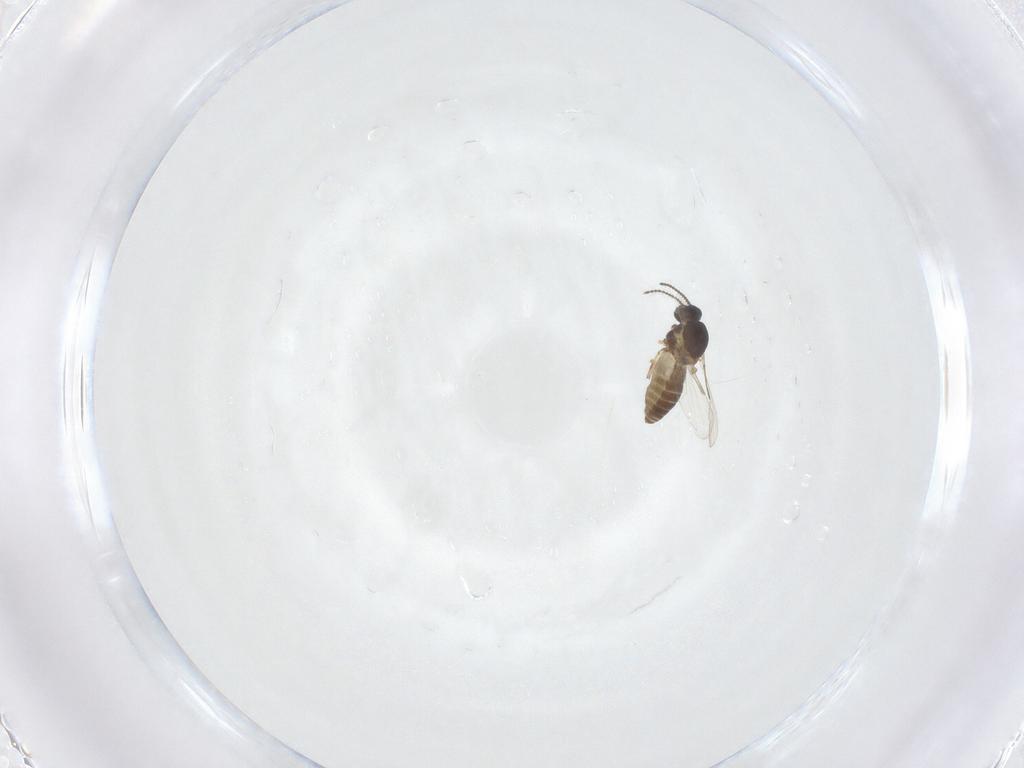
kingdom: Animalia
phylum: Arthropoda
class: Insecta
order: Diptera
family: Ceratopogonidae
